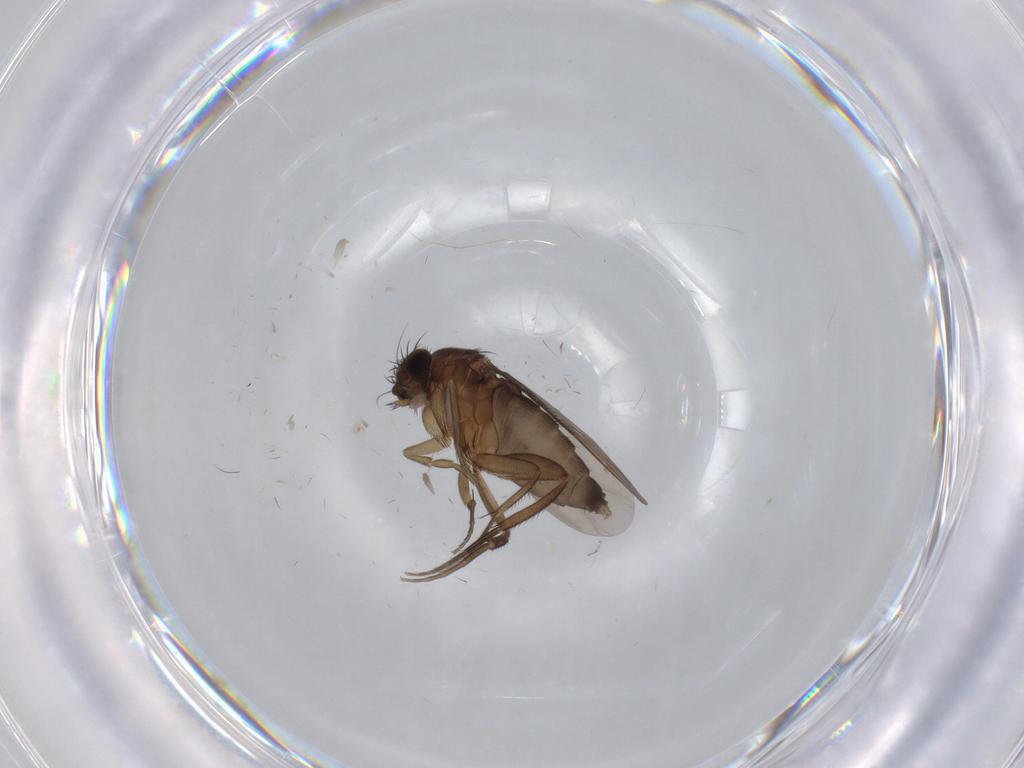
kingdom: Animalia
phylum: Arthropoda
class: Insecta
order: Diptera
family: Phoridae
